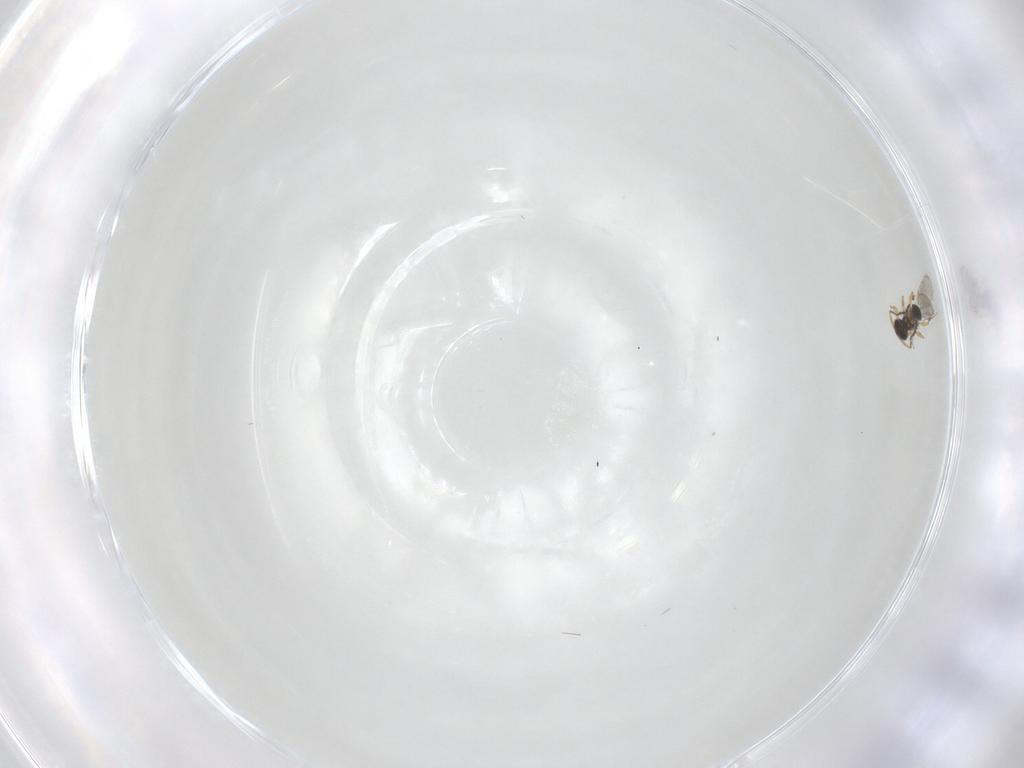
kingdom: Animalia
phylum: Arthropoda
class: Insecta
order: Hymenoptera
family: Platygastridae
